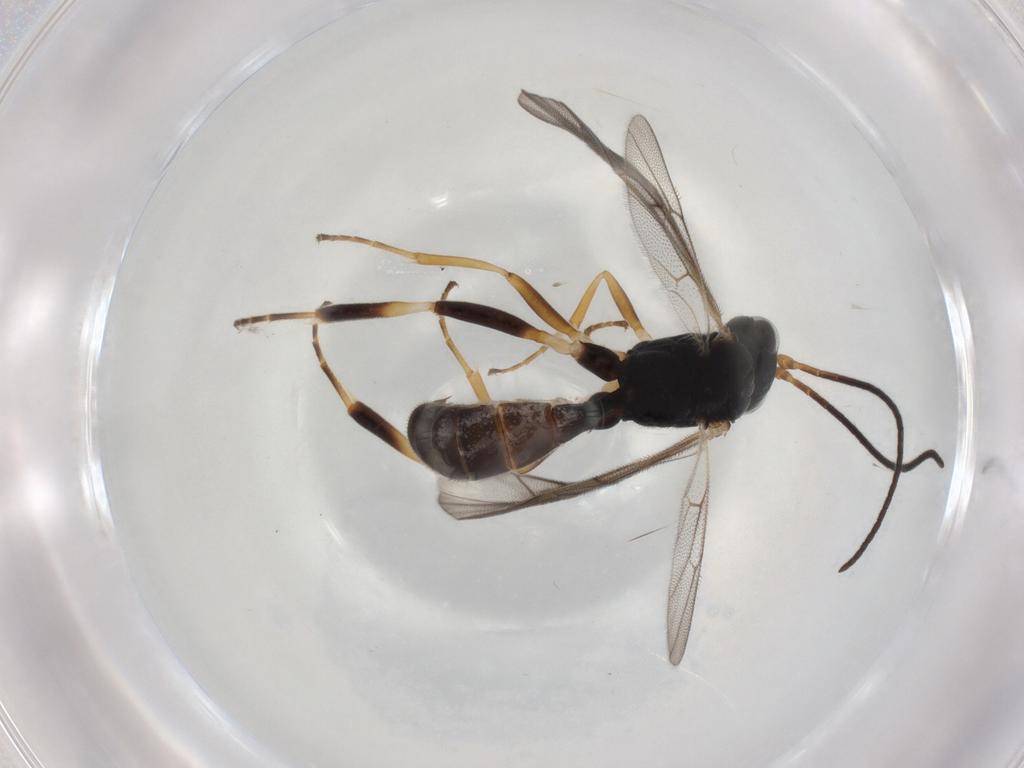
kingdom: Animalia
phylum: Arthropoda
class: Insecta
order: Hymenoptera
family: Ichneumonidae
